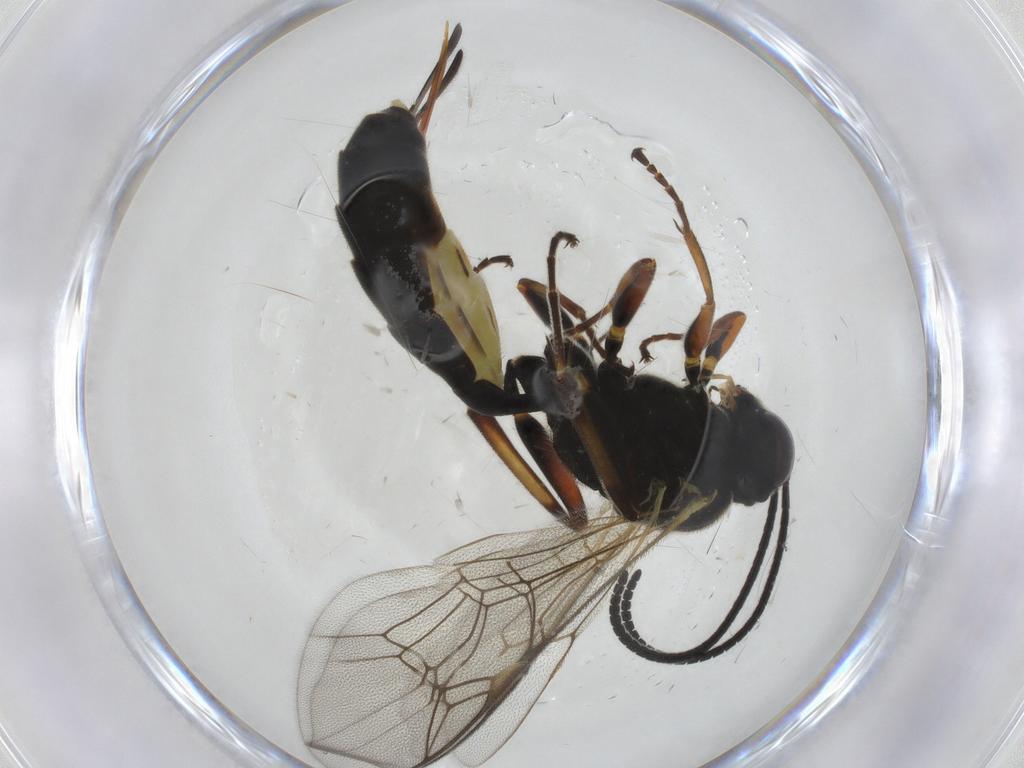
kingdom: Animalia
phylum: Arthropoda
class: Insecta
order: Hymenoptera
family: Ichneumonidae
